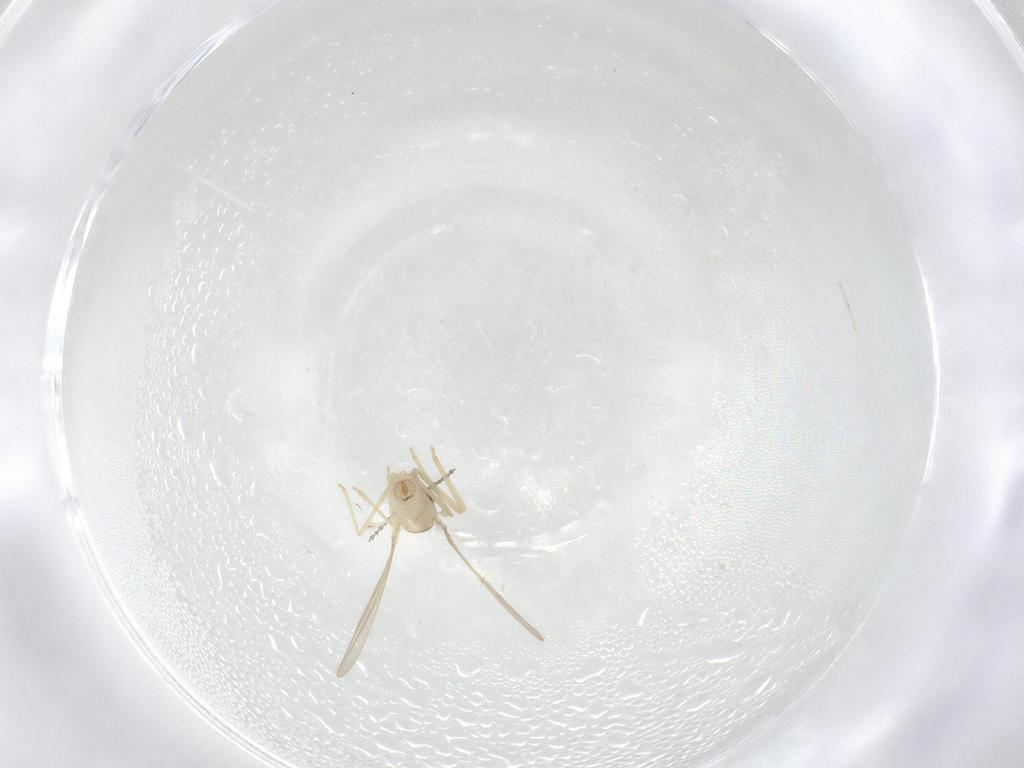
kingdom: Animalia
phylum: Arthropoda
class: Insecta
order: Diptera
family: Cecidomyiidae
